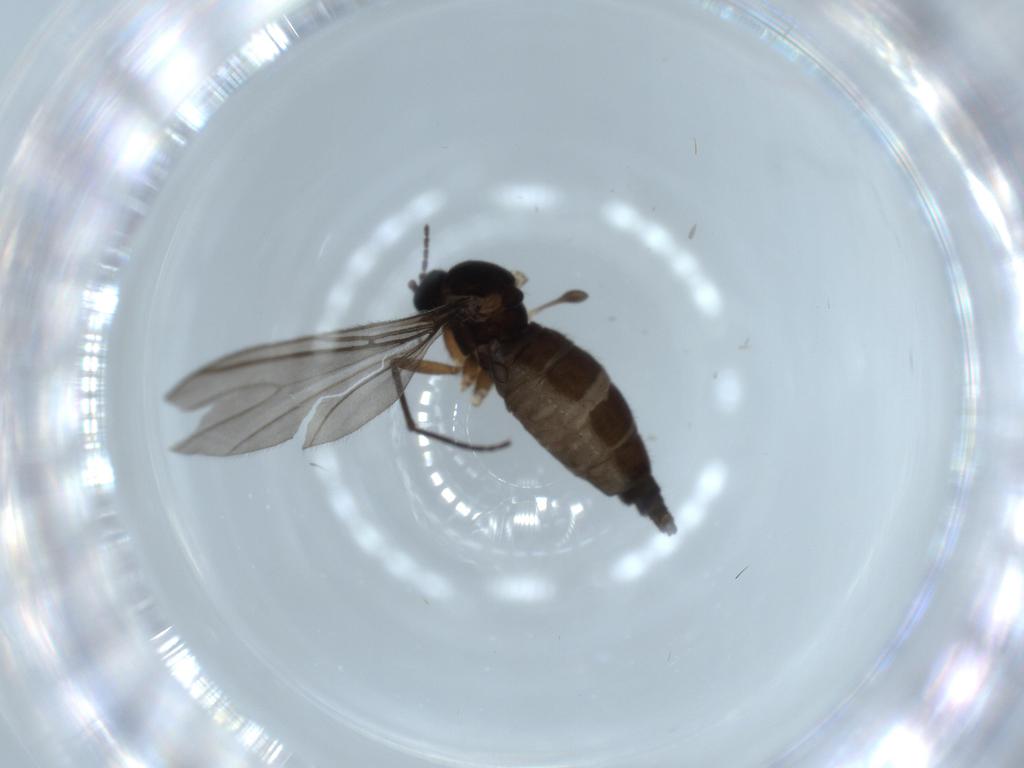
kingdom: Animalia
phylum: Arthropoda
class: Insecta
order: Diptera
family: Sciaridae
